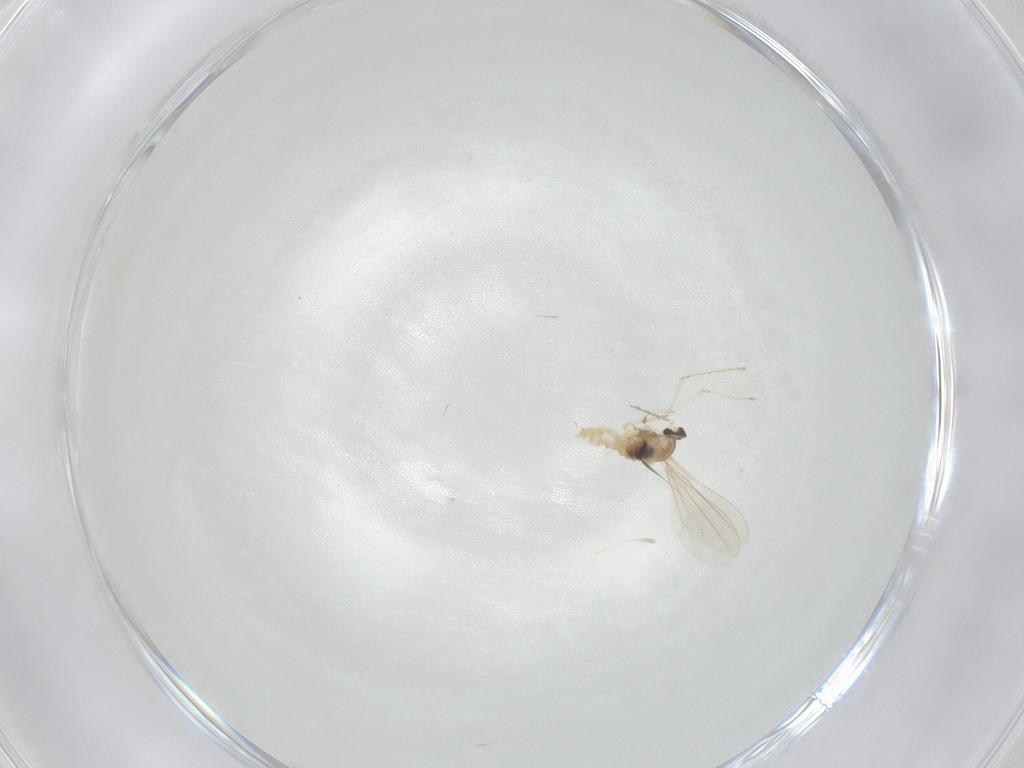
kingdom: Animalia
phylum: Arthropoda
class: Insecta
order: Diptera
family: Cecidomyiidae
